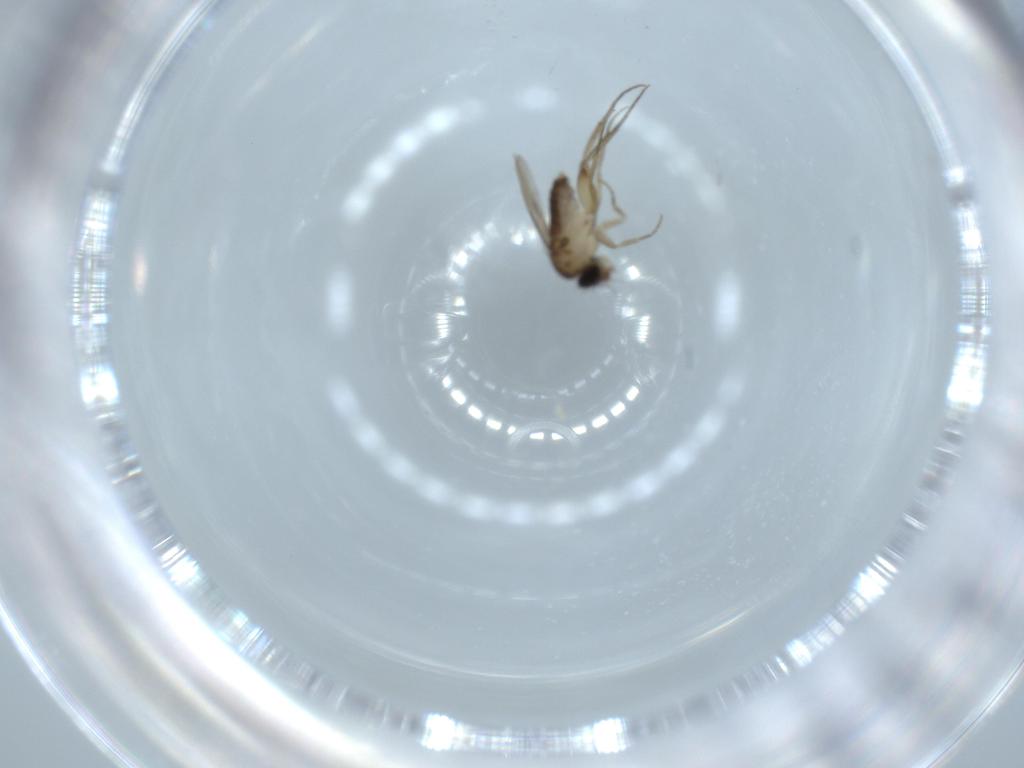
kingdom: Animalia
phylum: Arthropoda
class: Insecta
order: Diptera
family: Phoridae
